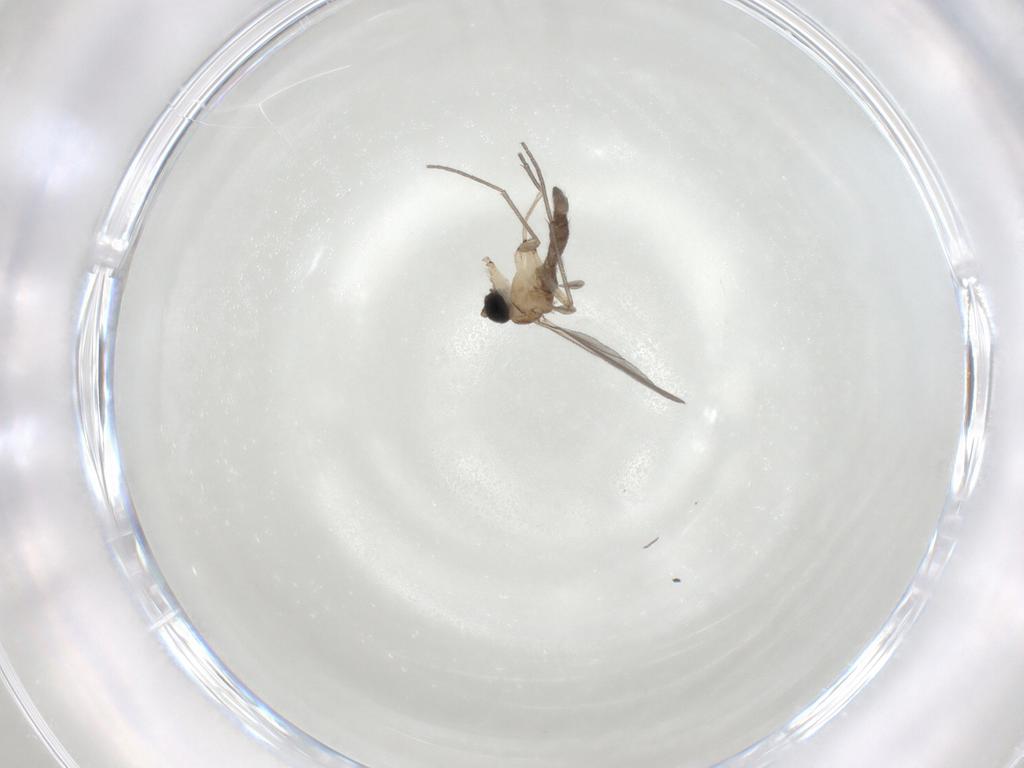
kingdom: Animalia
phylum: Arthropoda
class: Insecta
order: Diptera
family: Sciaridae
